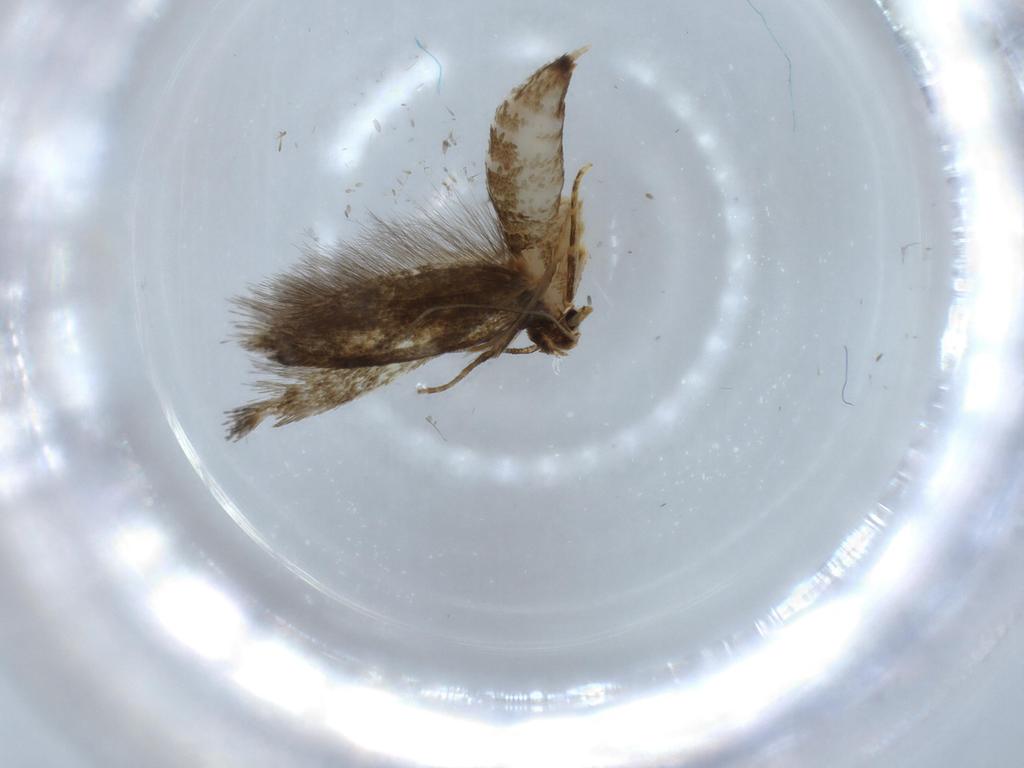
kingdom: Animalia
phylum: Arthropoda
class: Insecta
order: Lepidoptera
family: Tineidae
